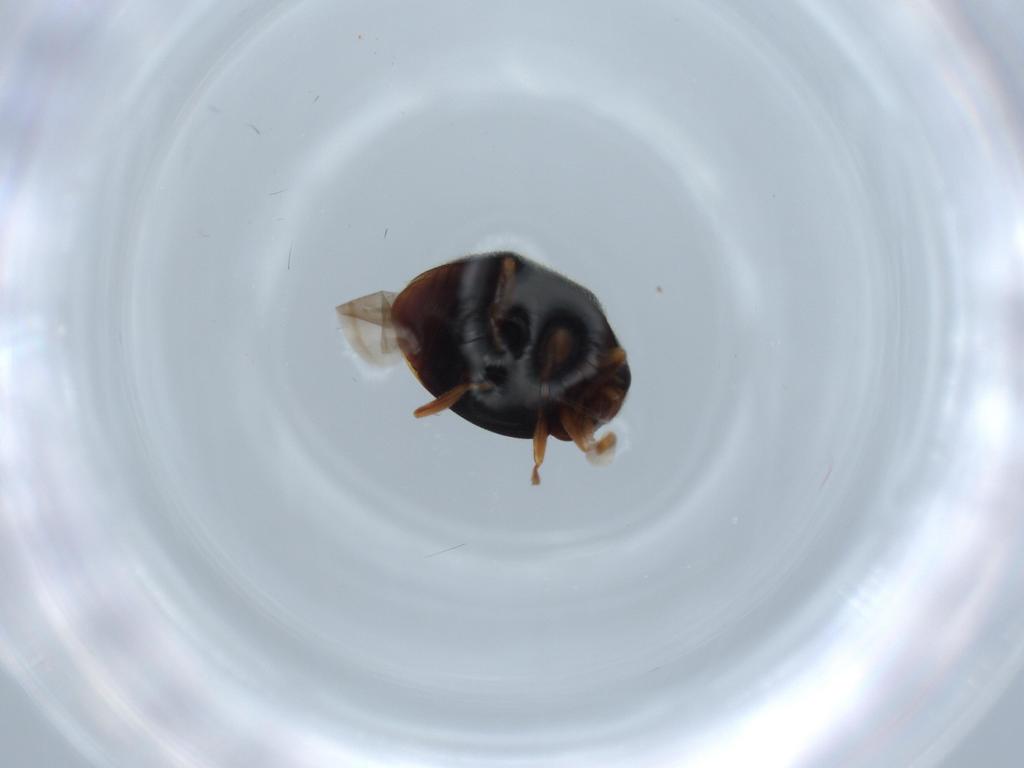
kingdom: Animalia
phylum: Arthropoda
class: Insecta
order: Coleoptera
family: Coccinellidae
